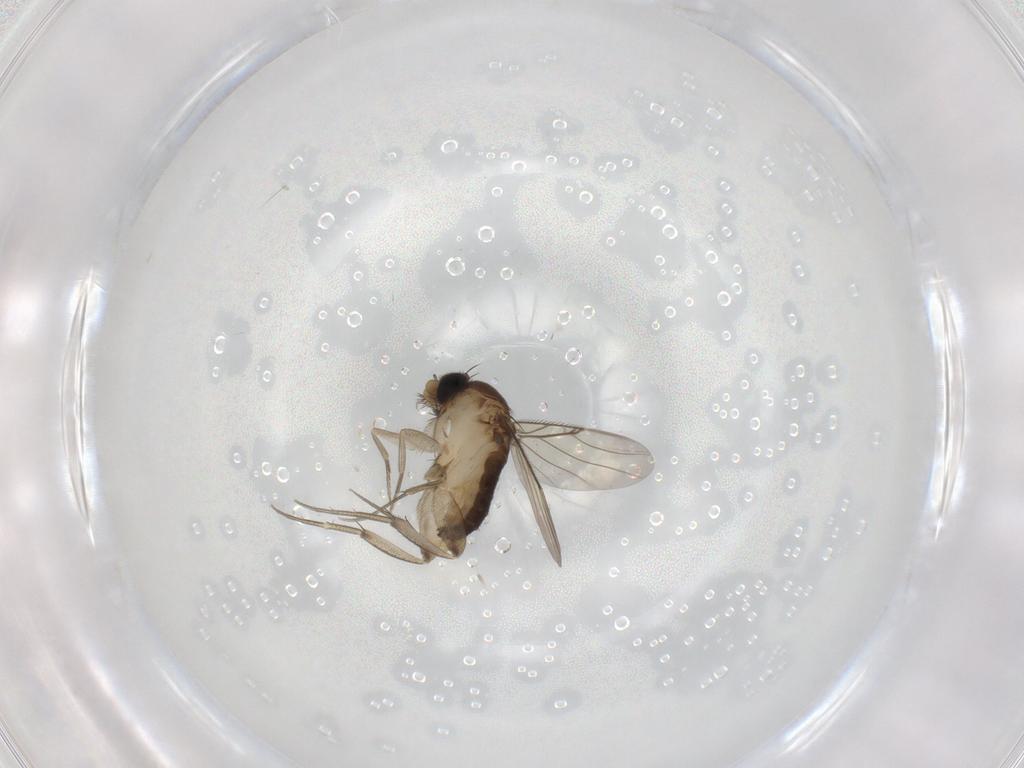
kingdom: Animalia
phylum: Arthropoda
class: Insecta
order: Diptera
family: Phoridae
